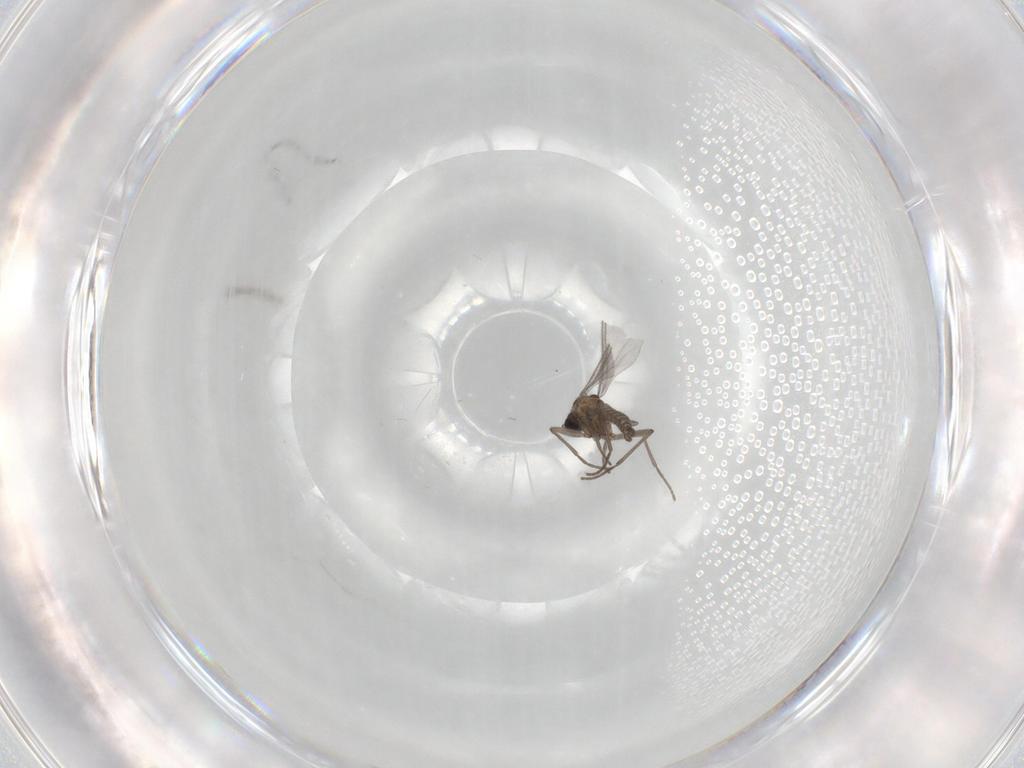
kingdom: Animalia
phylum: Arthropoda
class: Insecta
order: Diptera
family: Sciaridae
